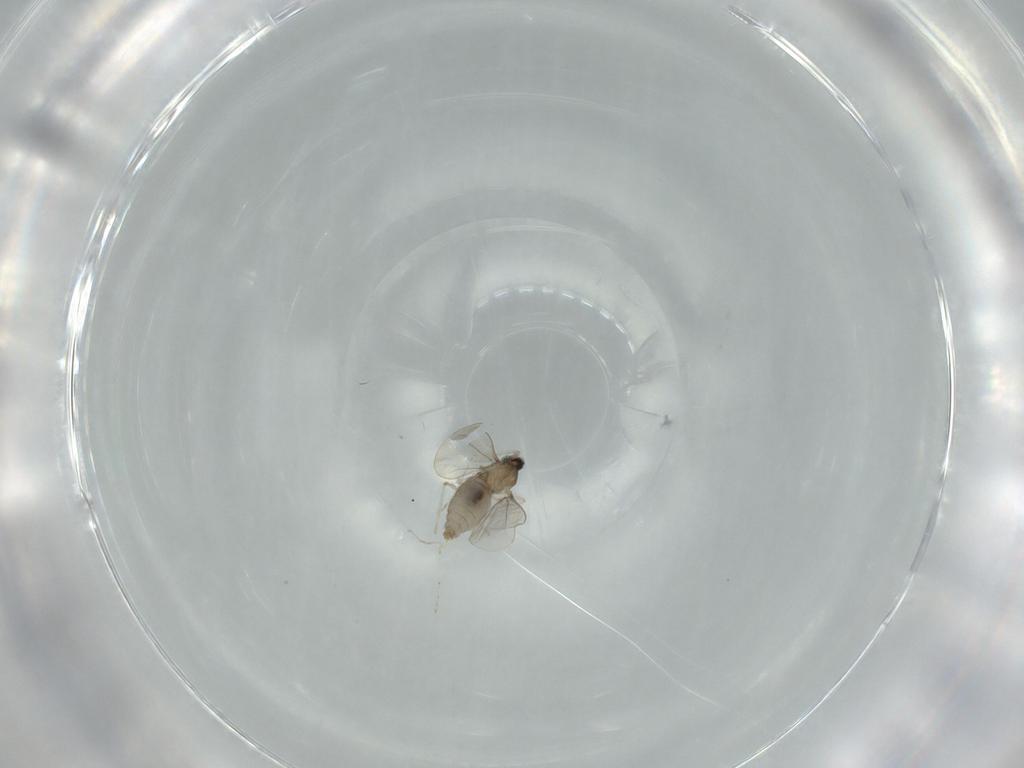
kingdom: Animalia
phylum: Arthropoda
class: Insecta
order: Diptera
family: Cecidomyiidae
